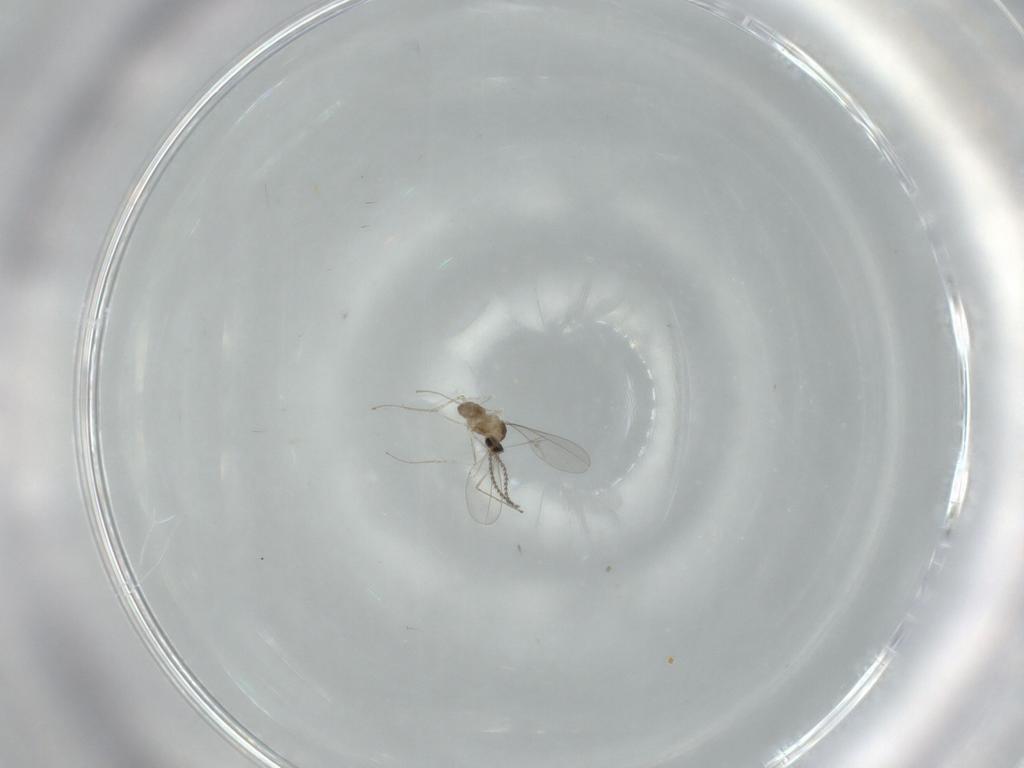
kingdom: Animalia
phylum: Arthropoda
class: Insecta
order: Diptera
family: Cecidomyiidae
